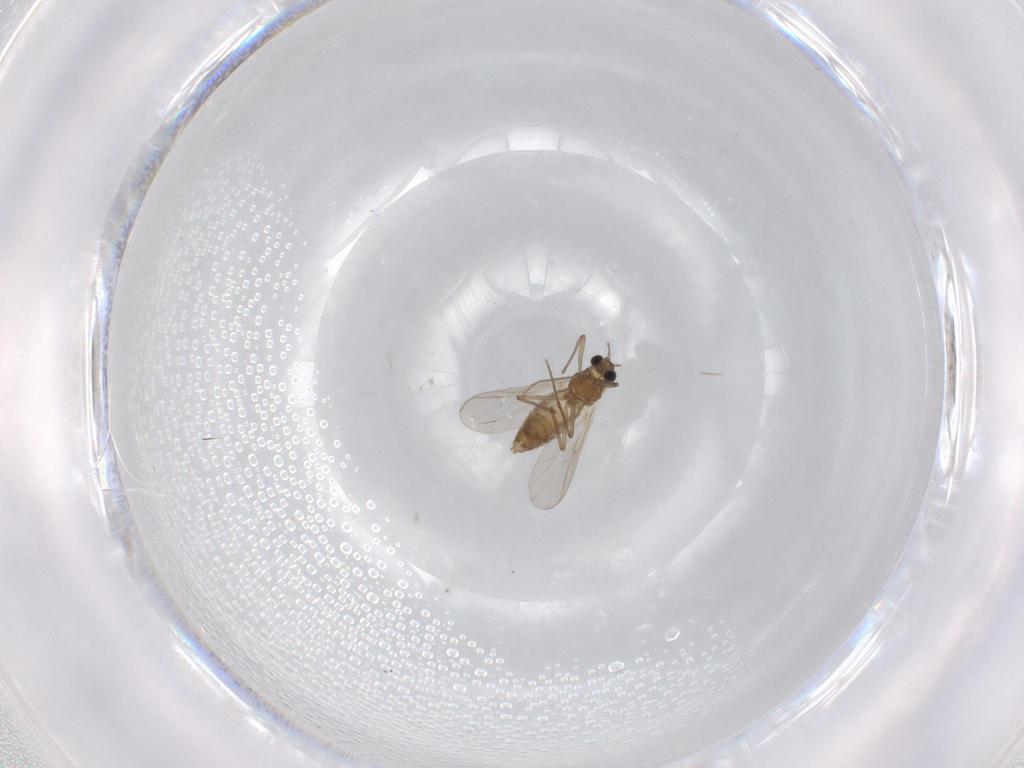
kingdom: Animalia
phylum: Arthropoda
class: Insecta
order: Diptera
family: Chironomidae
